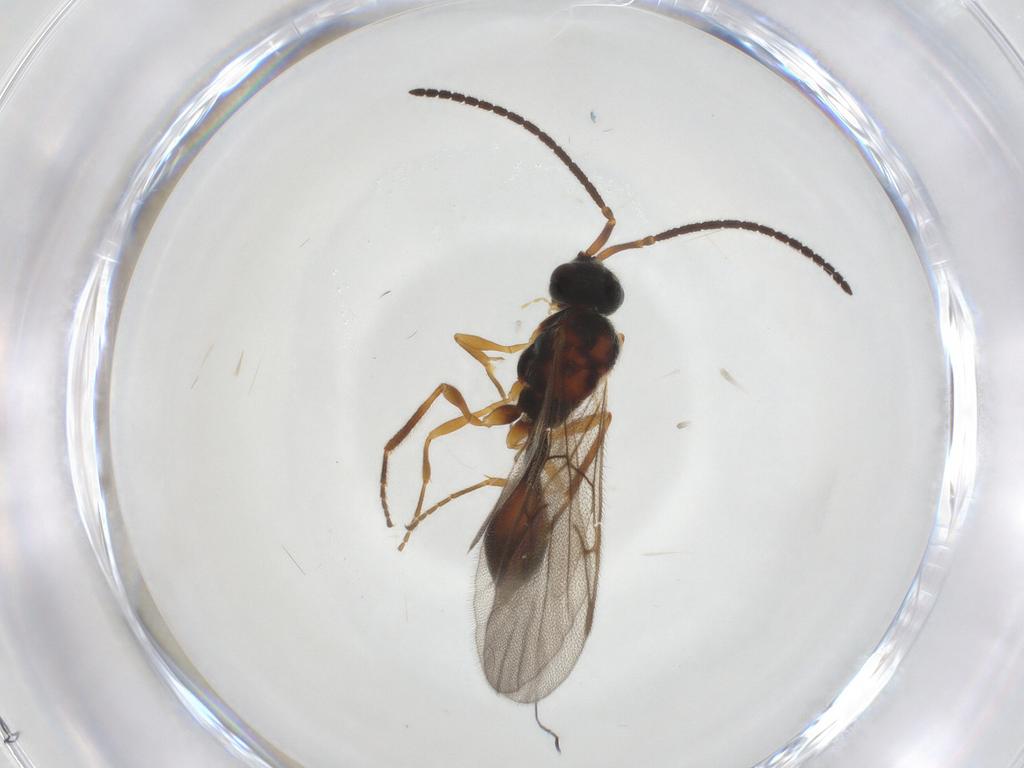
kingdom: Animalia
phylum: Arthropoda
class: Insecta
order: Hymenoptera
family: Diapriidae
